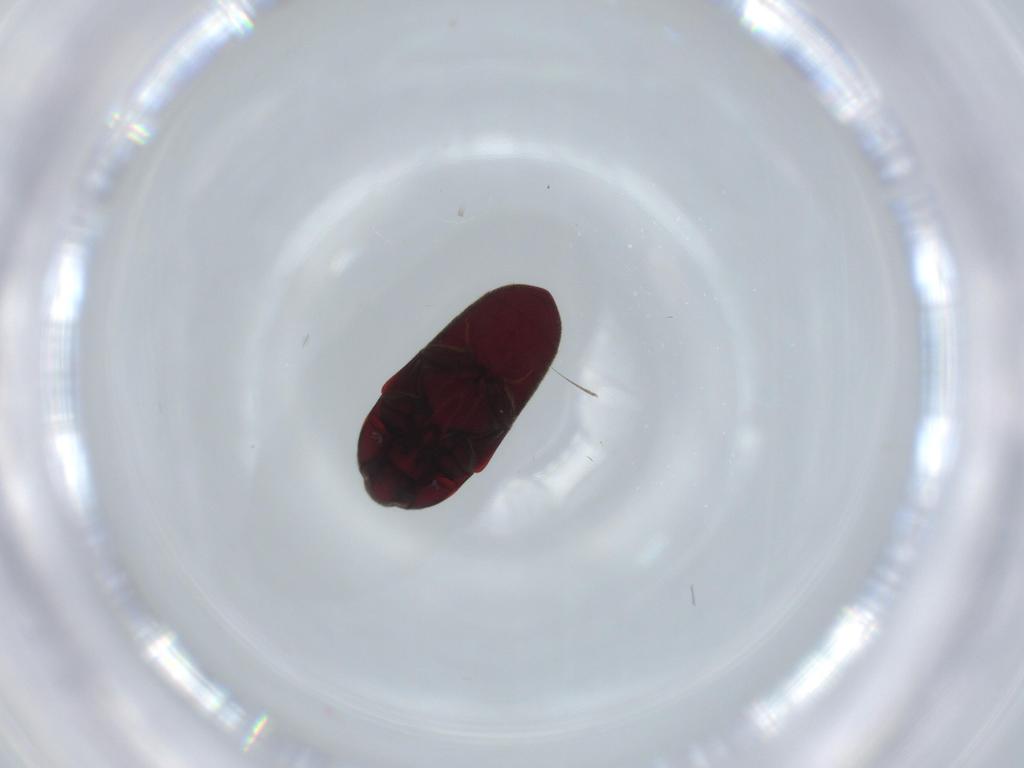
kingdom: Animalia
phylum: Arthropoda
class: Insecta
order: Coleoptera
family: Throscidae
